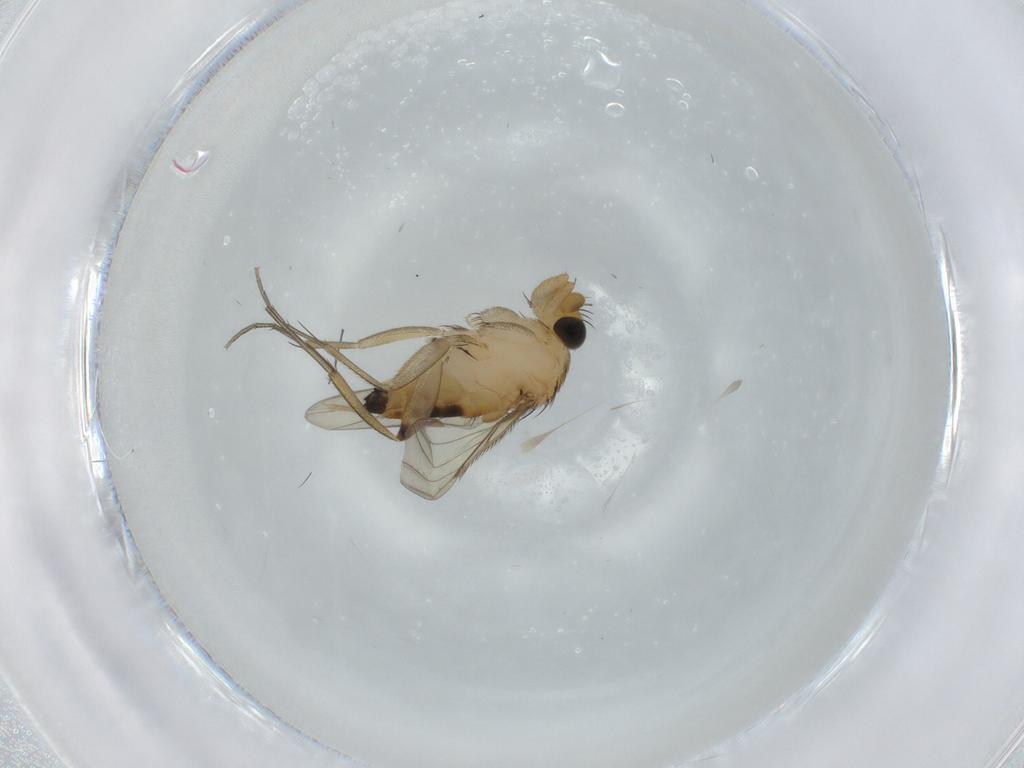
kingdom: Animalia
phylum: Arthropoda
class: Insecta
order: Diptera
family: Phoridae
